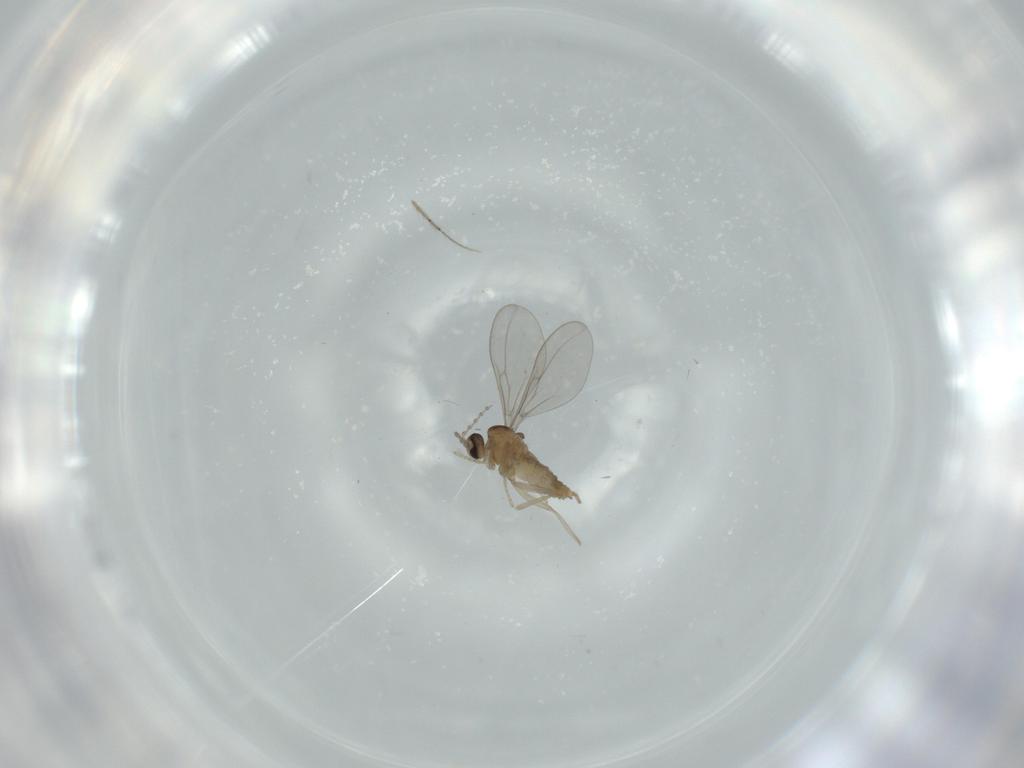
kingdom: Animalia
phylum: Arthropoda
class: Insecta
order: Diptera
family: Cecidomyiidae
